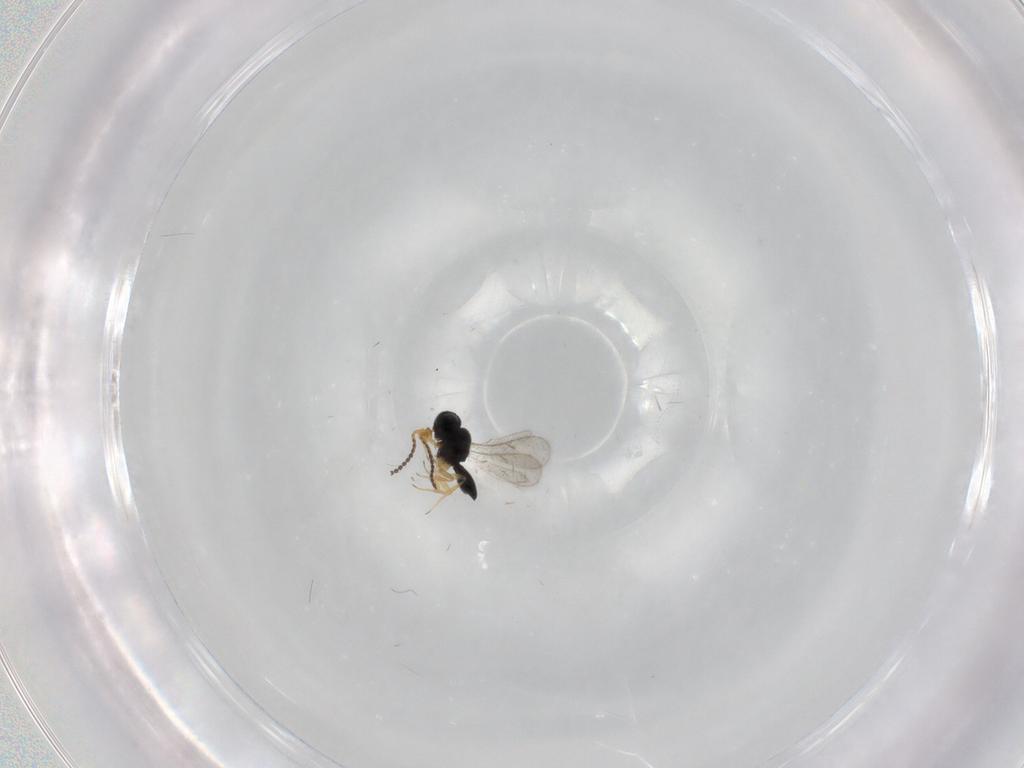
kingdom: Animalia
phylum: Arthropoda
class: Insecta
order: Hymenoptera
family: Scelionidae
